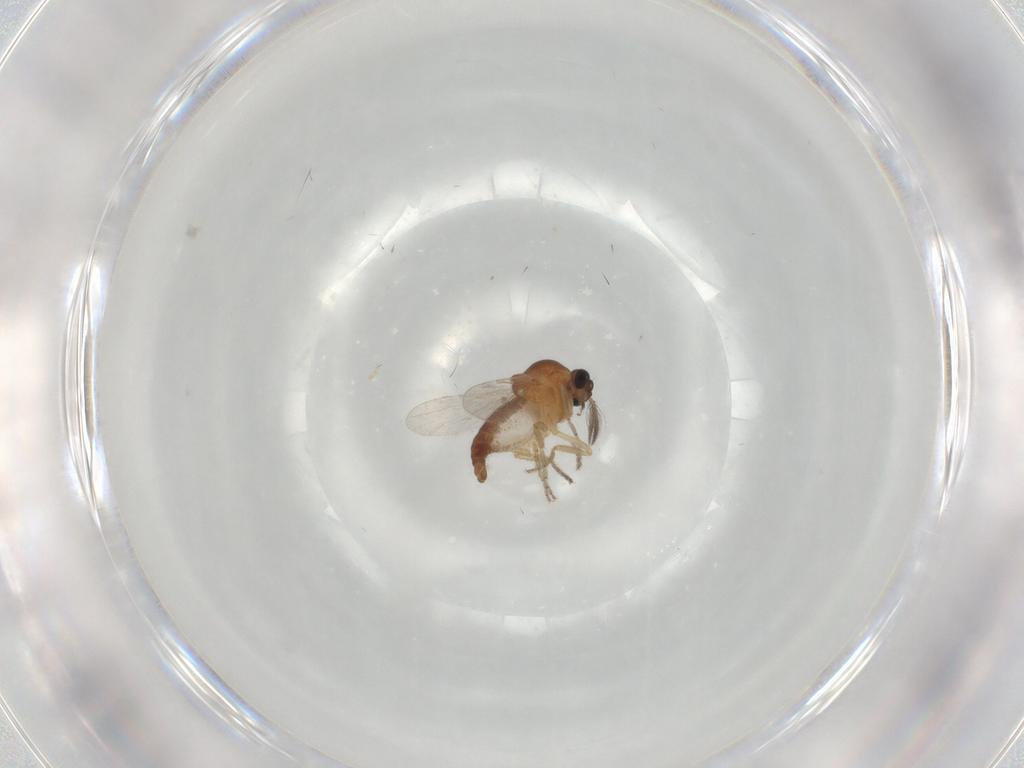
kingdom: Animalia
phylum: Arthropoda
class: Insecta
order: Diptera
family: Ceratopogonidae
